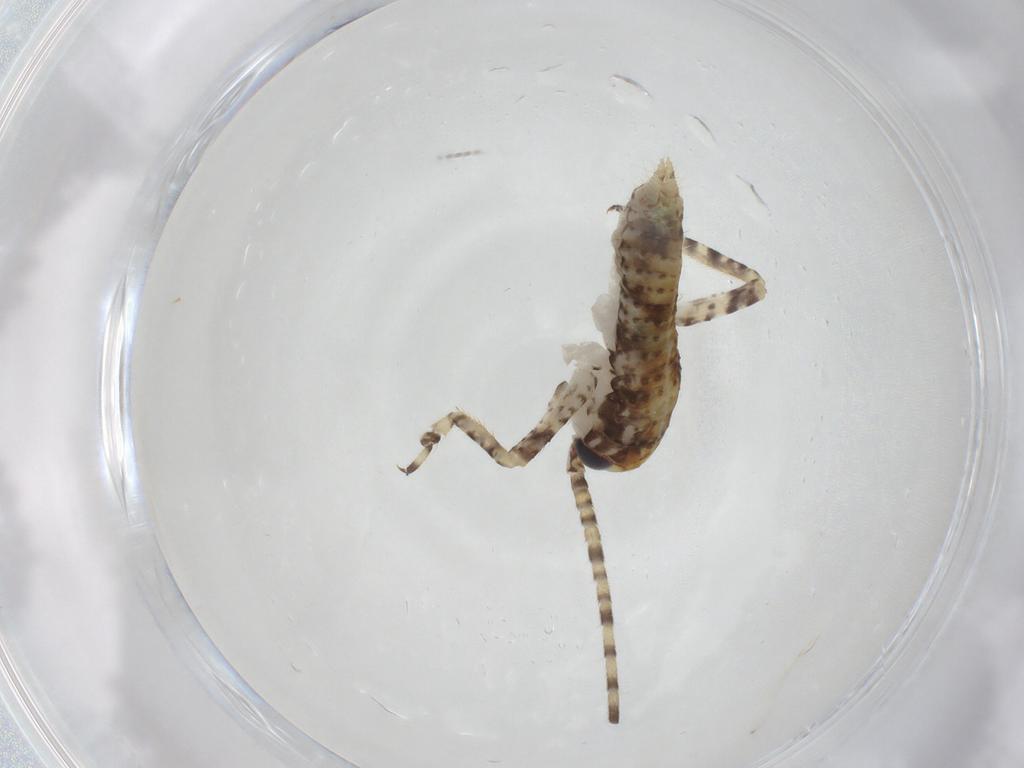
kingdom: Animalia
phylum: Arthropoda
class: Insecta
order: Orthoptera
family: Gryllidae
